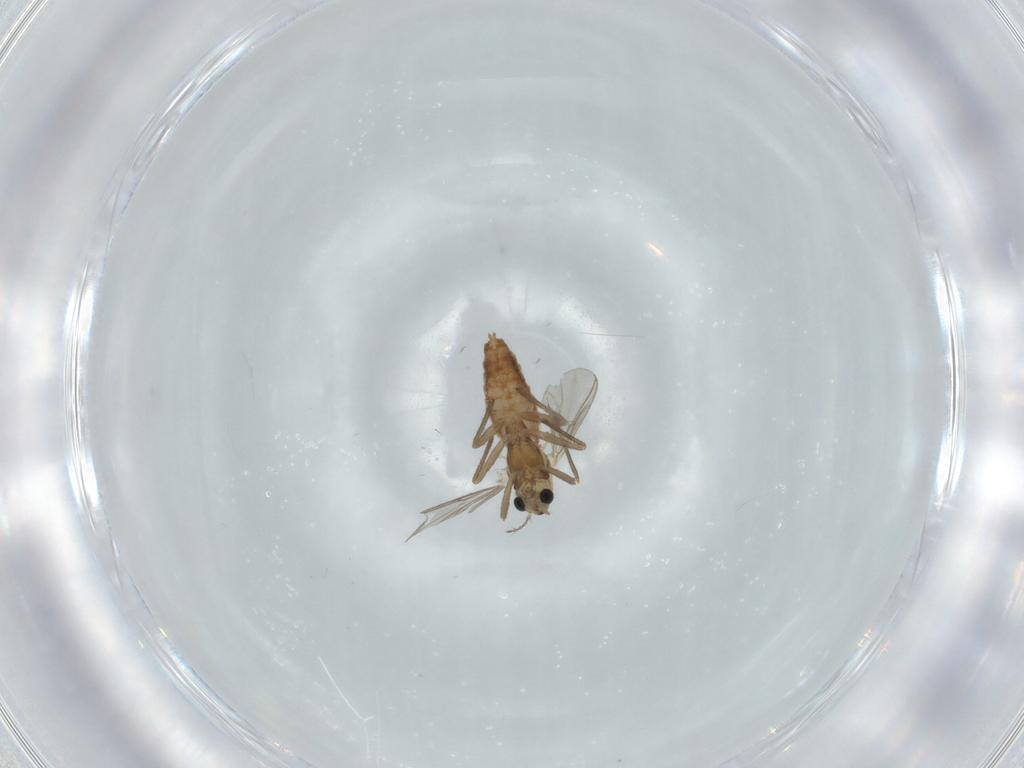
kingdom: Animalia
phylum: Arthropoda
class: Insecta
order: Diptera
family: Chironomidae
